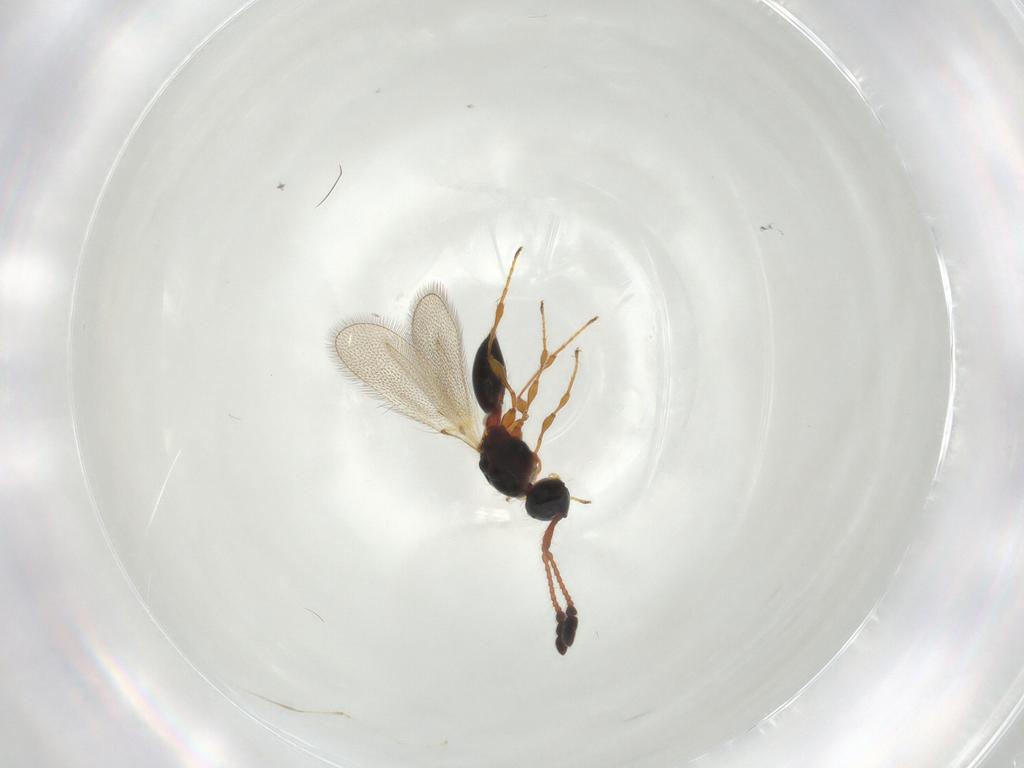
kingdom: Animalia
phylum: Arthropoda
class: Insecta
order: Hymenoptera
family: Diapriidae
